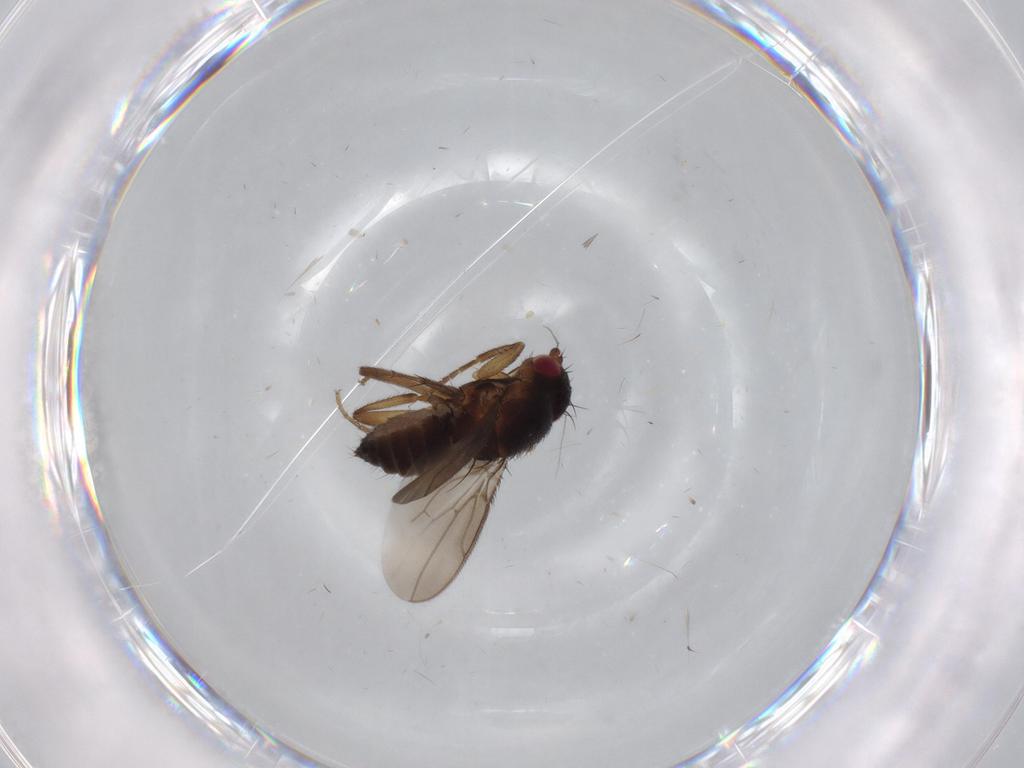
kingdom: Animalia
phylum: Arthropoda
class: Insecta
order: Diptera
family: Sphaeroceridae
